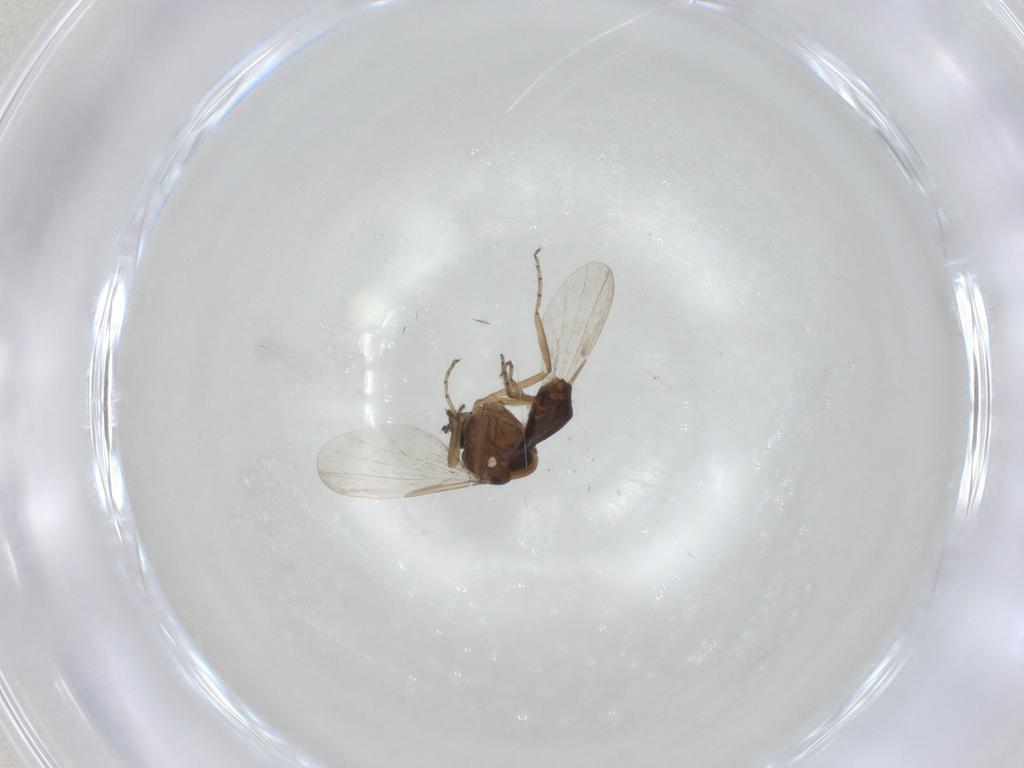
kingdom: Animalia
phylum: Arthropoda
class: Insecta
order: Diptera
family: Ceratopogonidae
